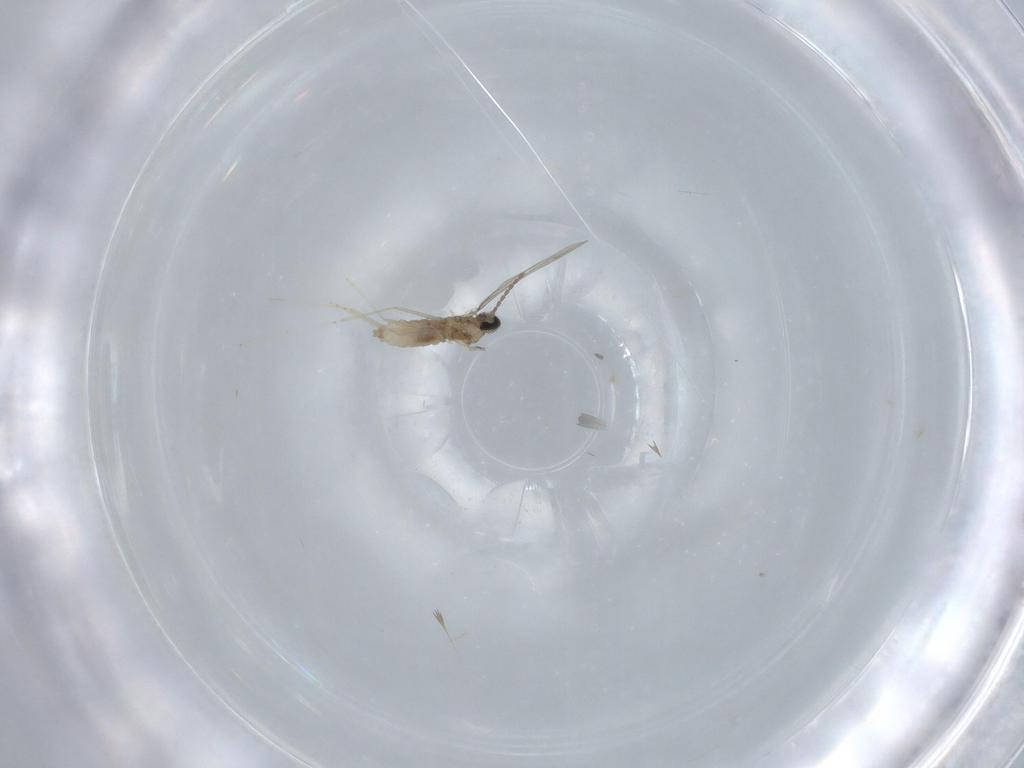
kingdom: Animalia
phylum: Arthropoda
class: Insecta
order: Diptera
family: Cecidomyiidae
